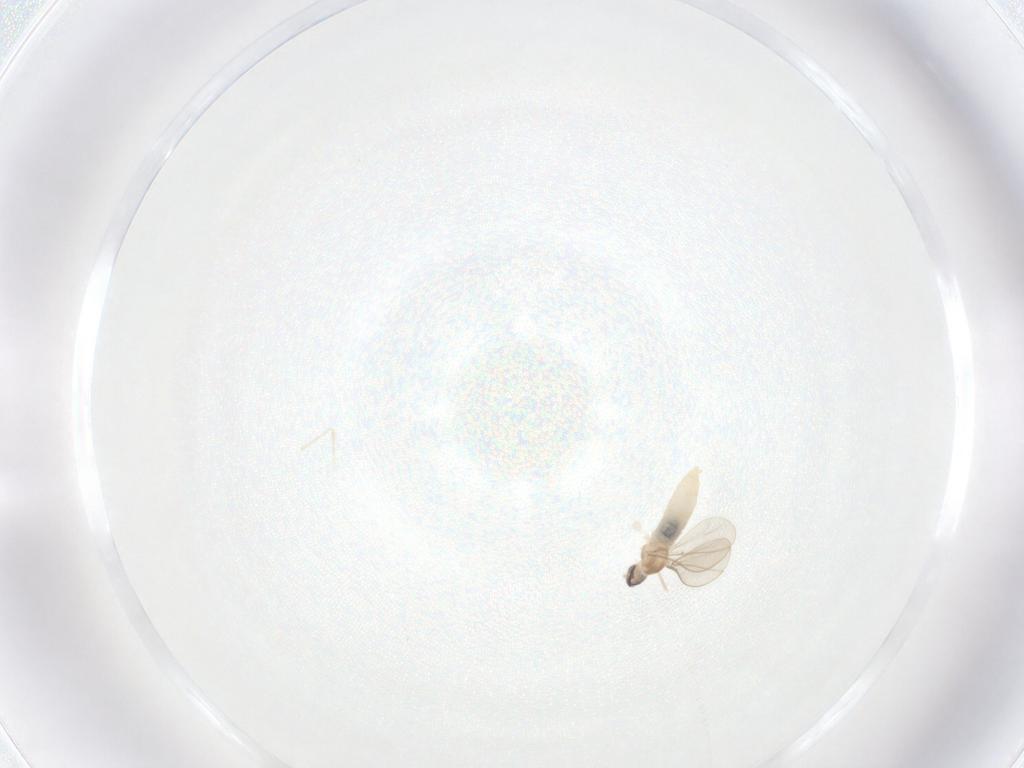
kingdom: Animalia
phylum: Arthropoda
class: Insecta
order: Diptera
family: Cecidomyiidae
